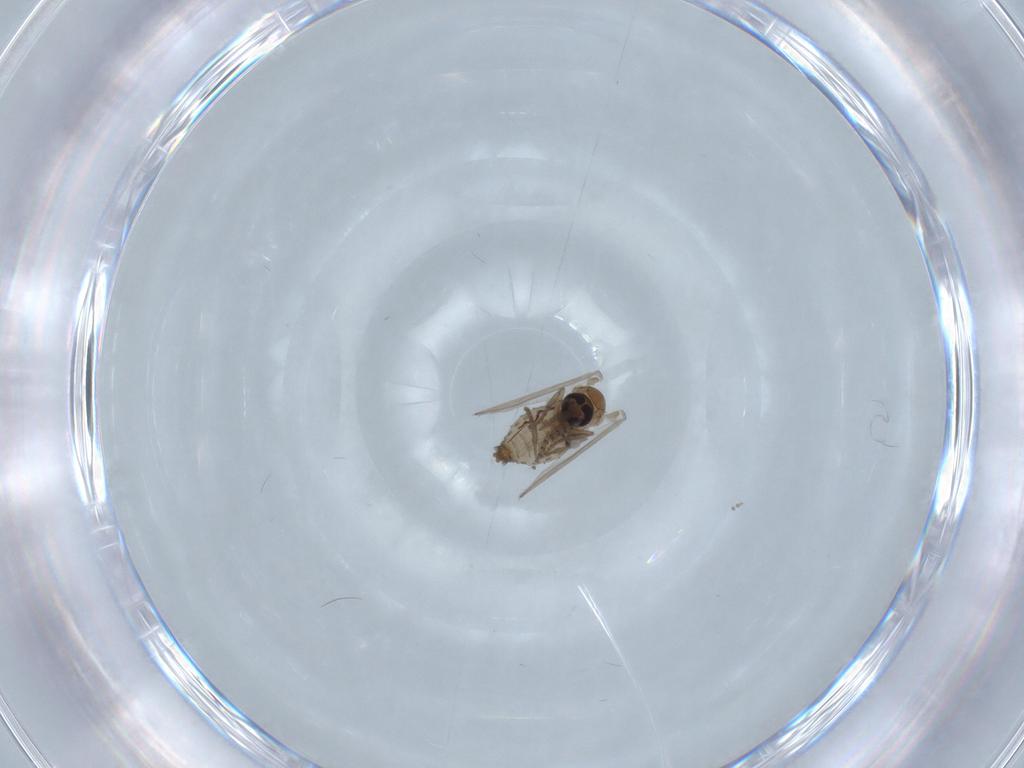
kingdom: Animalia
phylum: Arthropoda
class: Insecta
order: Diptera
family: Psychodidae
